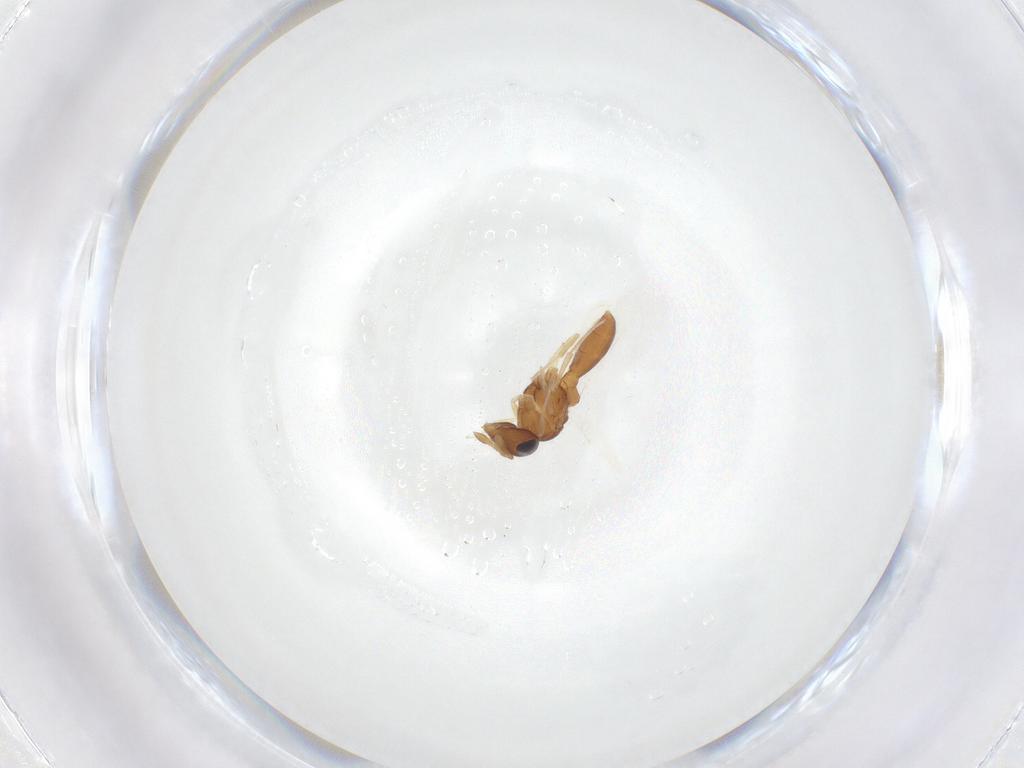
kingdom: Animalia
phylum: Arthropoda
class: Insecta
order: Hymenoptera
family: Scelionidae
